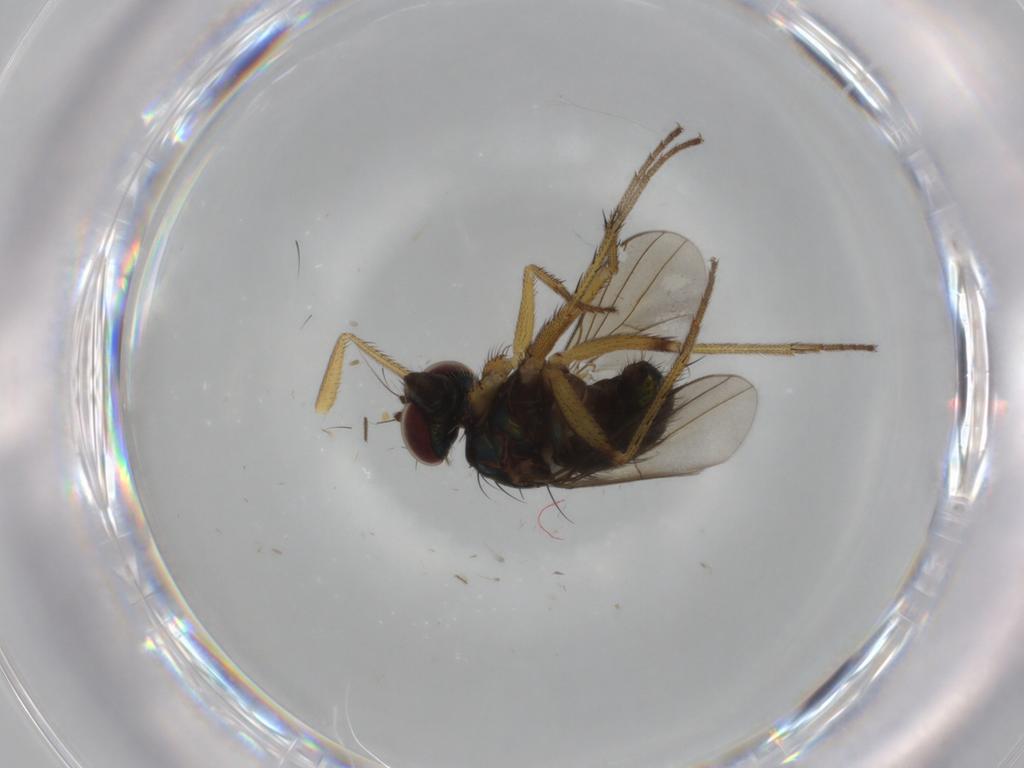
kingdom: Animalia
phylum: Arthropoda
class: Insecta
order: Diptera
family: Dolichopodidae
